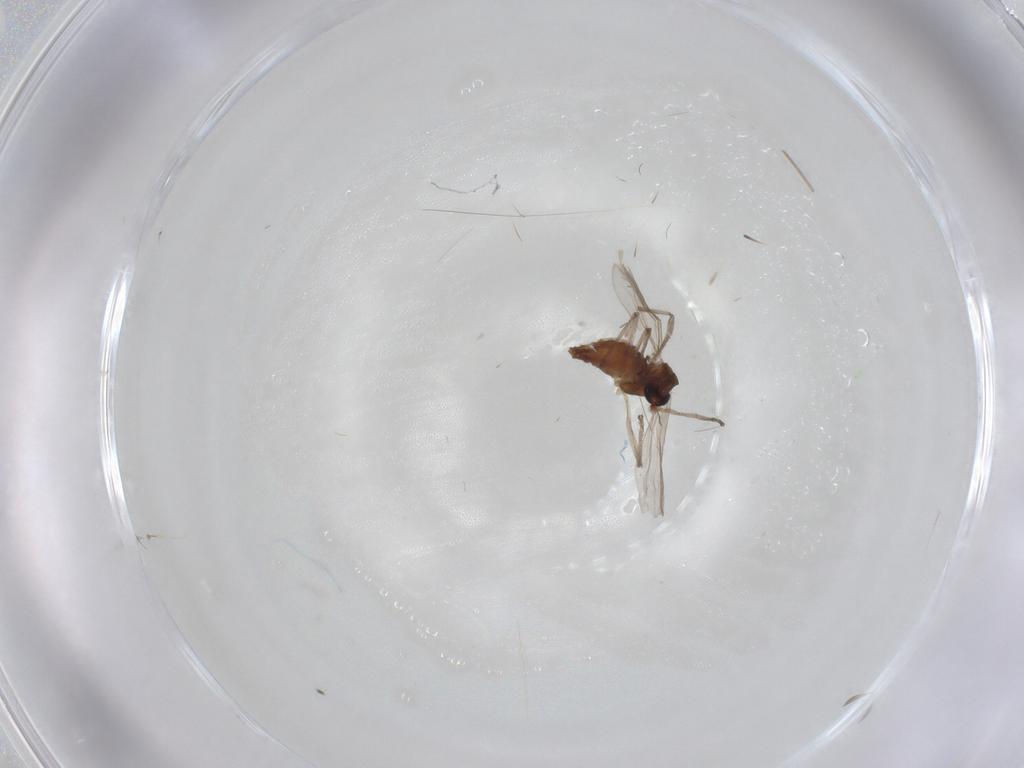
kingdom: Animalia
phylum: Arthropoda
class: Insecta
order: Diptera
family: Chironomidae
